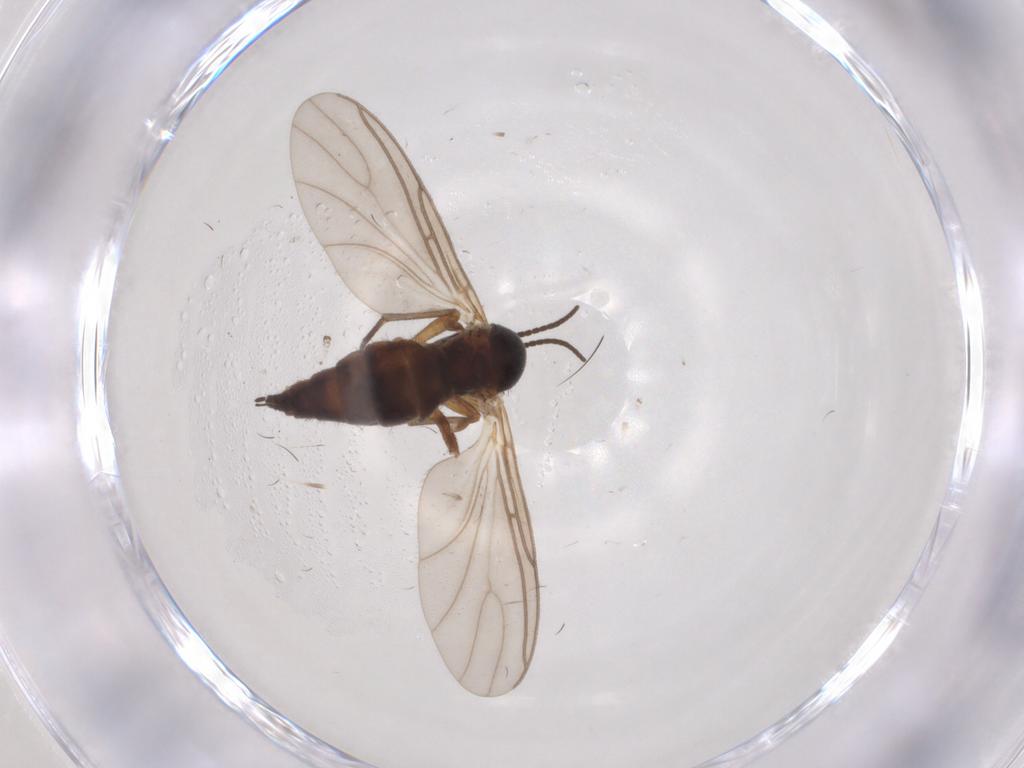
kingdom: Animalia
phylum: Arthropoda
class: Insecta
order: Diptera
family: Sciaridae
